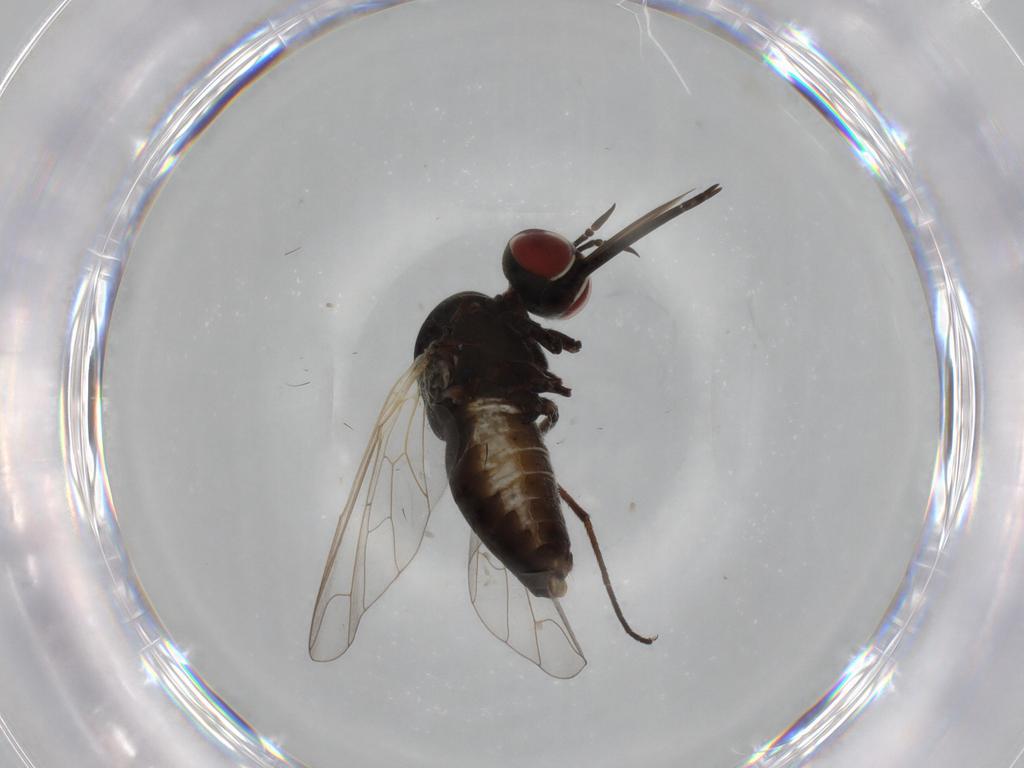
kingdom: Animalia
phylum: Arthropoda
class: Insecta
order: Diptera
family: Bombyliidae
